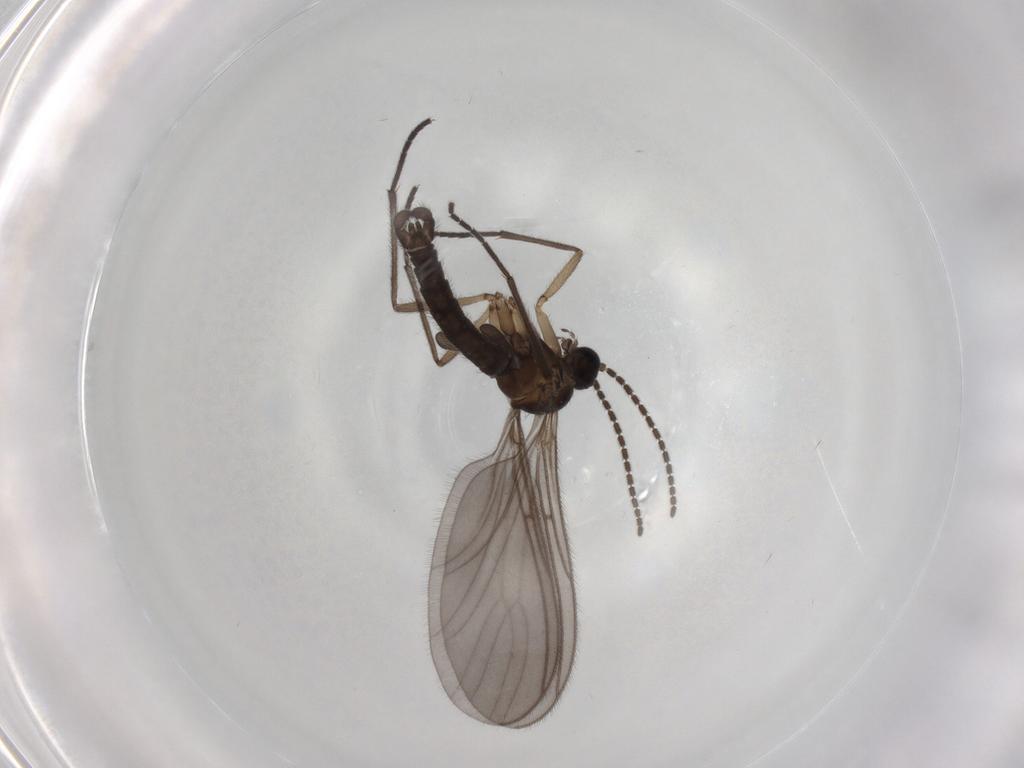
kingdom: Animalia
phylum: Arthropoda
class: Insecta
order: Diptera
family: Sciaridae
